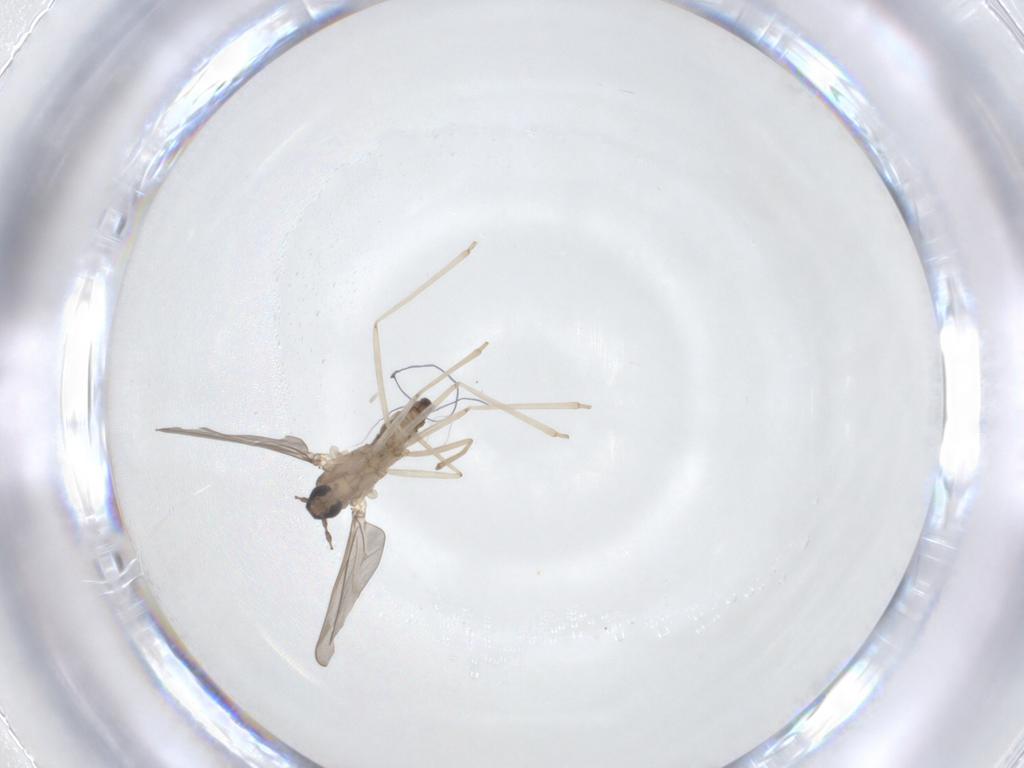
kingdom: Animalia
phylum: Arthropoda
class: Insecta
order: Diptera
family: Cecidomyiidae
